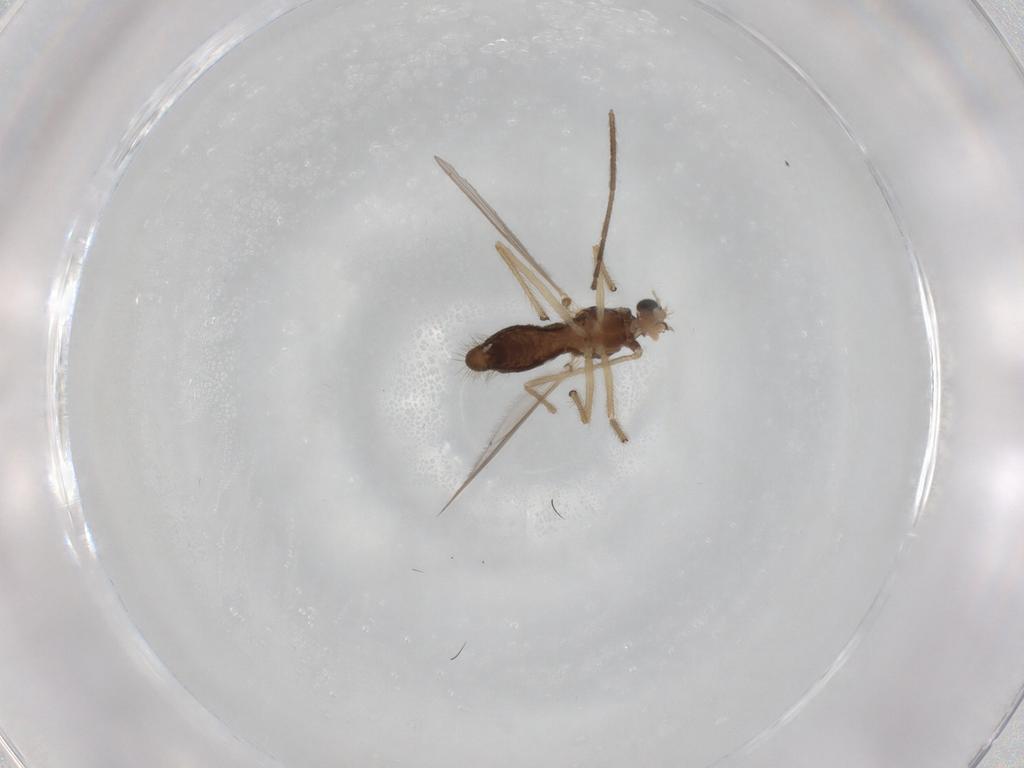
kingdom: Animalia
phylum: Arthropoda
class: Insecta
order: Diptera
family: Chironomidae
